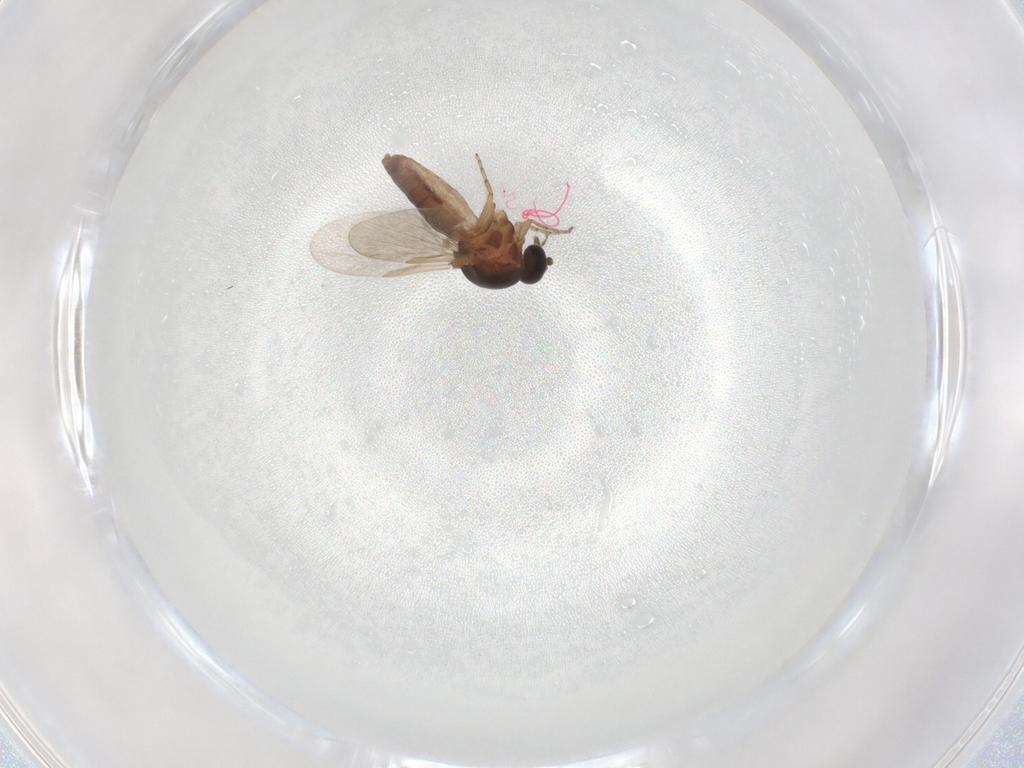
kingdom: Animalia
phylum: Arthropoda
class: Insecta
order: Diptera
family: Ceratopogonidae
